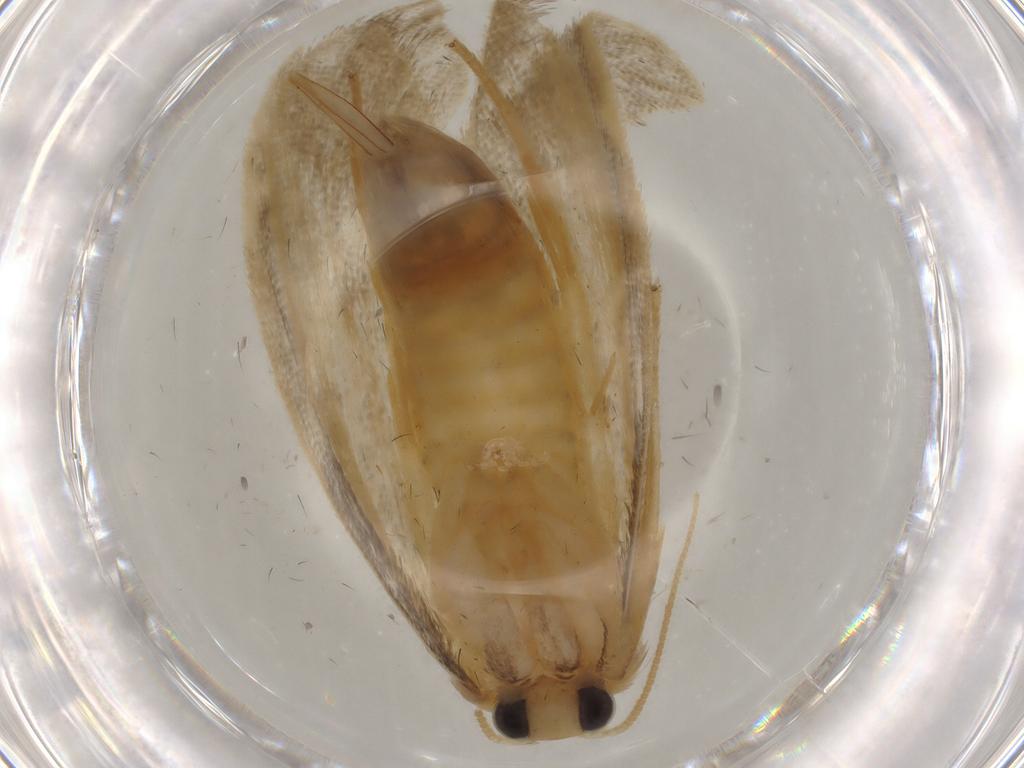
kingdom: Animalia
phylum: Arthropoda
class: Insecta
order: Lepidoptera
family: Psychidae
